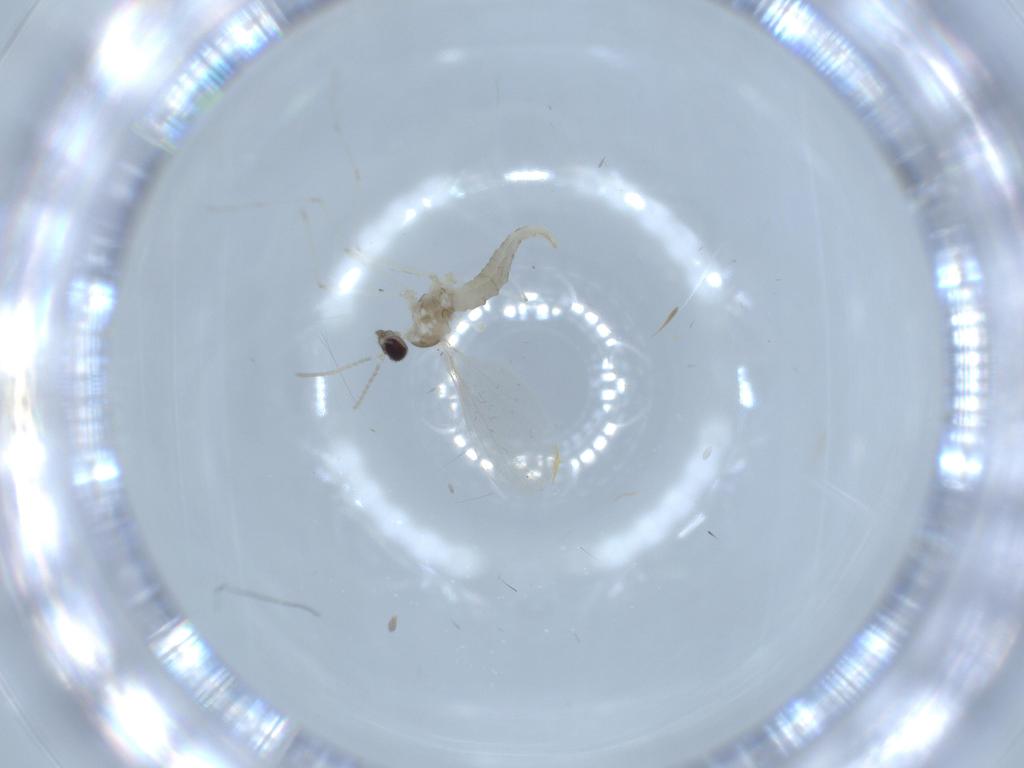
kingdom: Animalia
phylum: Arthropoda
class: Insecta
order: Diptera
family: Cecidomyiidae
